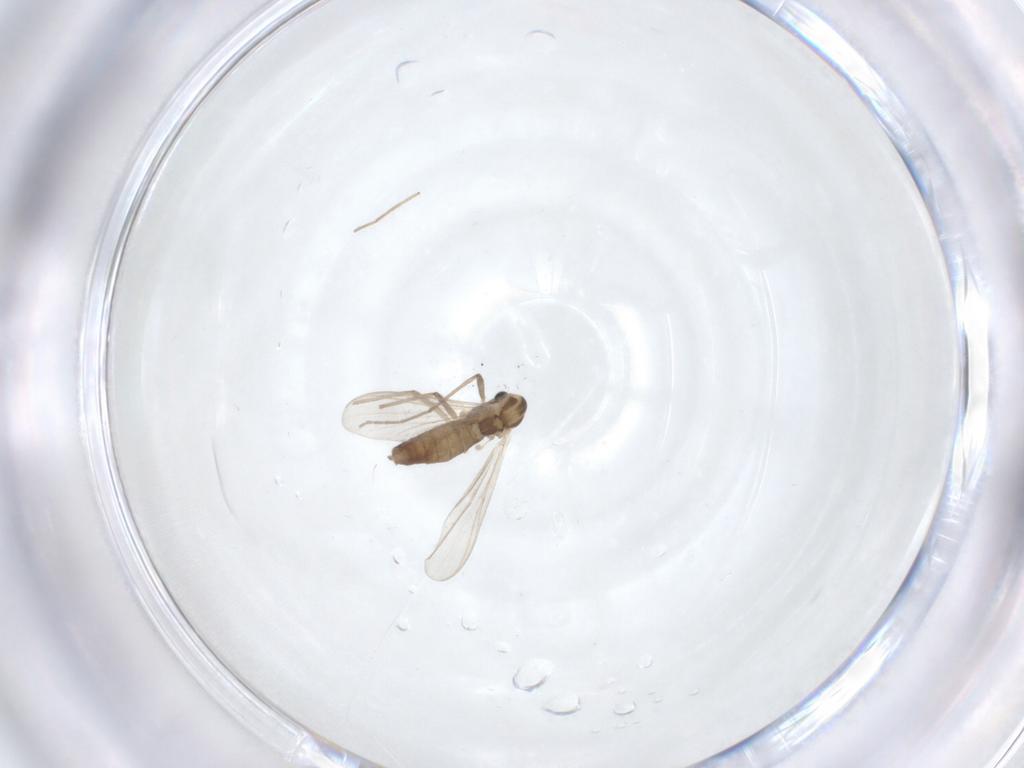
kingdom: Animalia
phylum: Arthropoda
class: Insecta
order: Diptera
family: Chironomidae
